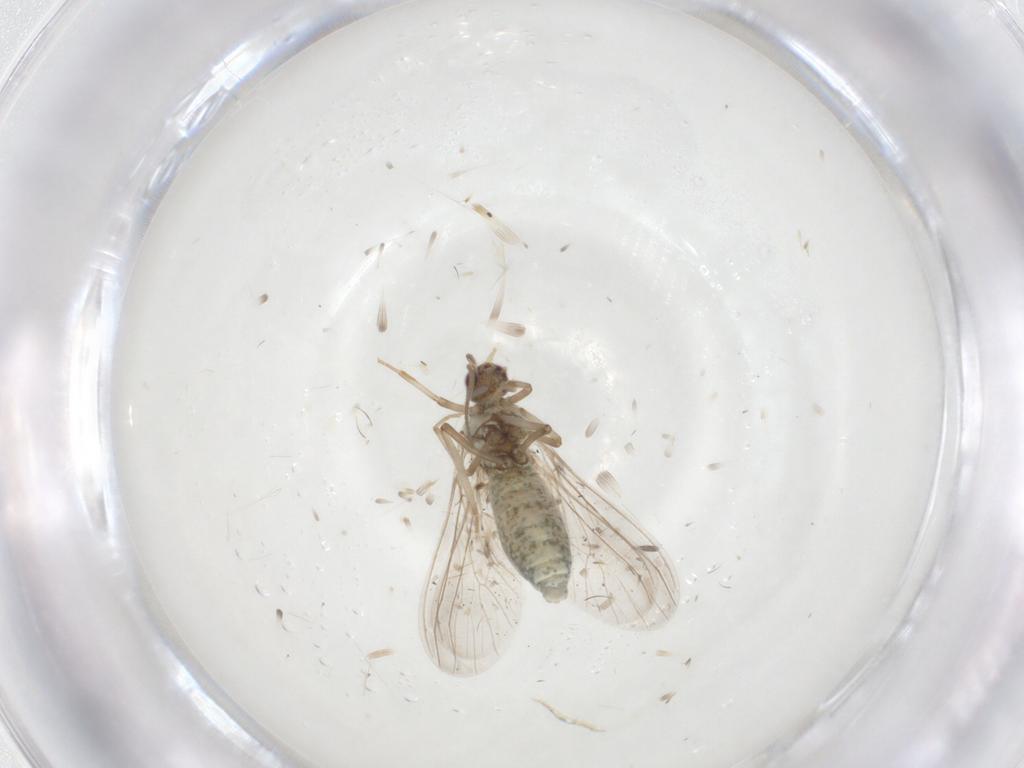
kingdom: Animalia
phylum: Arthropoda
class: Insecta
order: Neuroptera
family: Coniopterygidae
